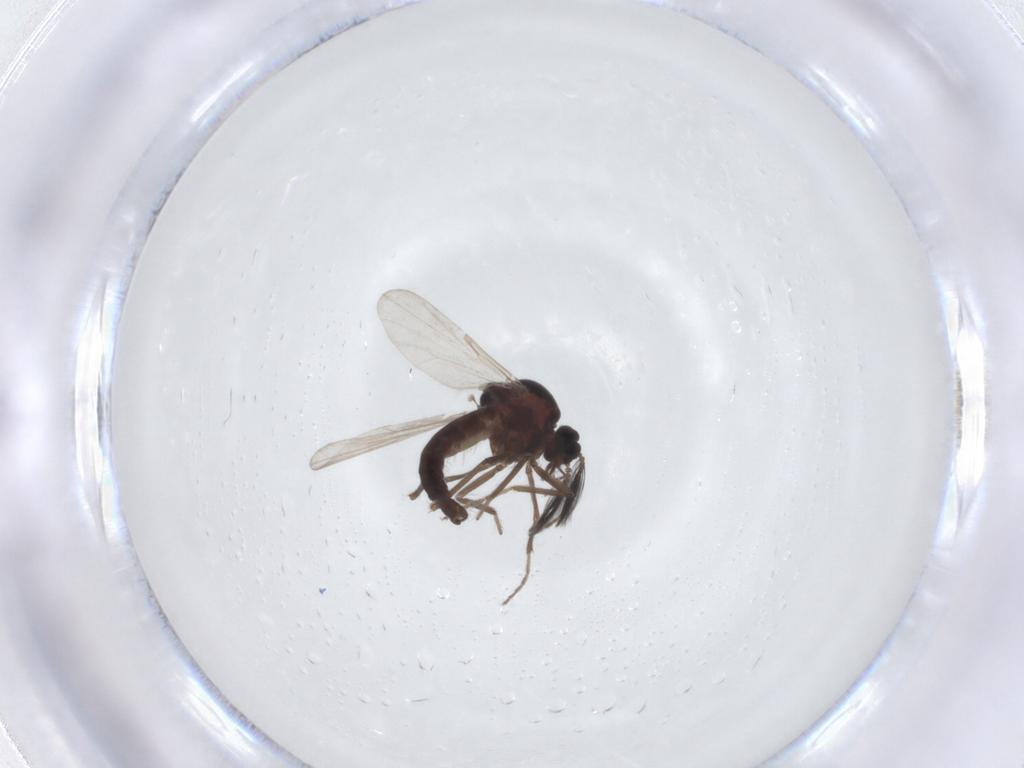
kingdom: Animalia
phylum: Arthropoda
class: Insecta
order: Diptera
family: Ceratopogonidae
